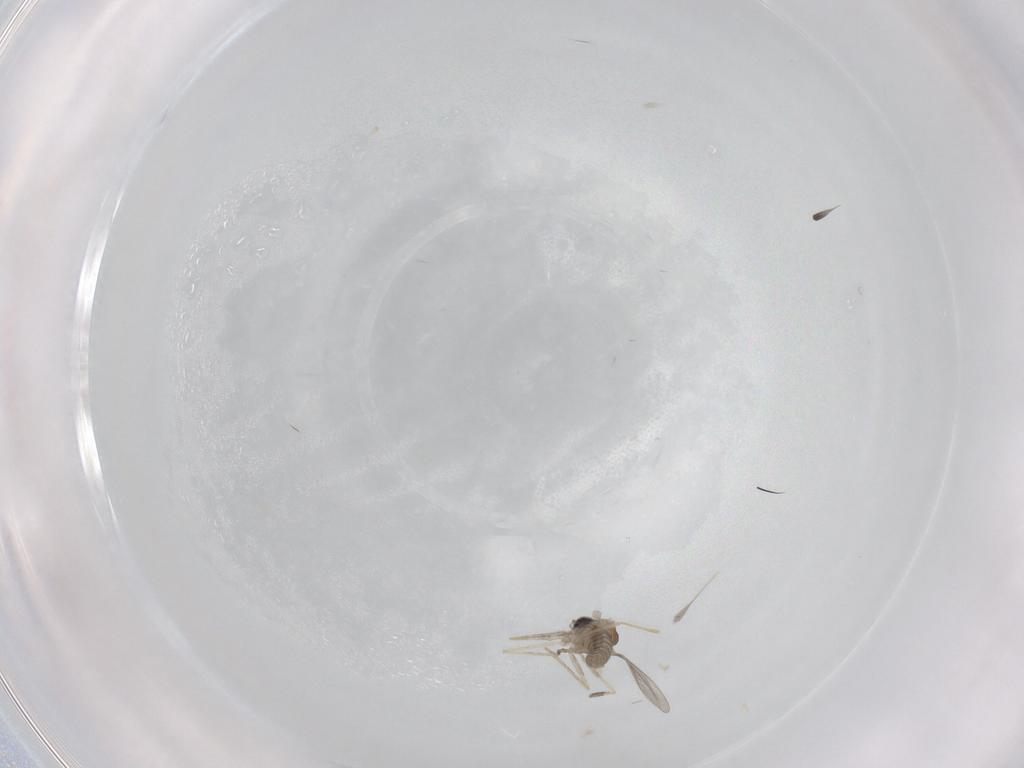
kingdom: Animalia
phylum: Arthropoda
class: Insecta
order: Diptera
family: Cecidomyiidae
